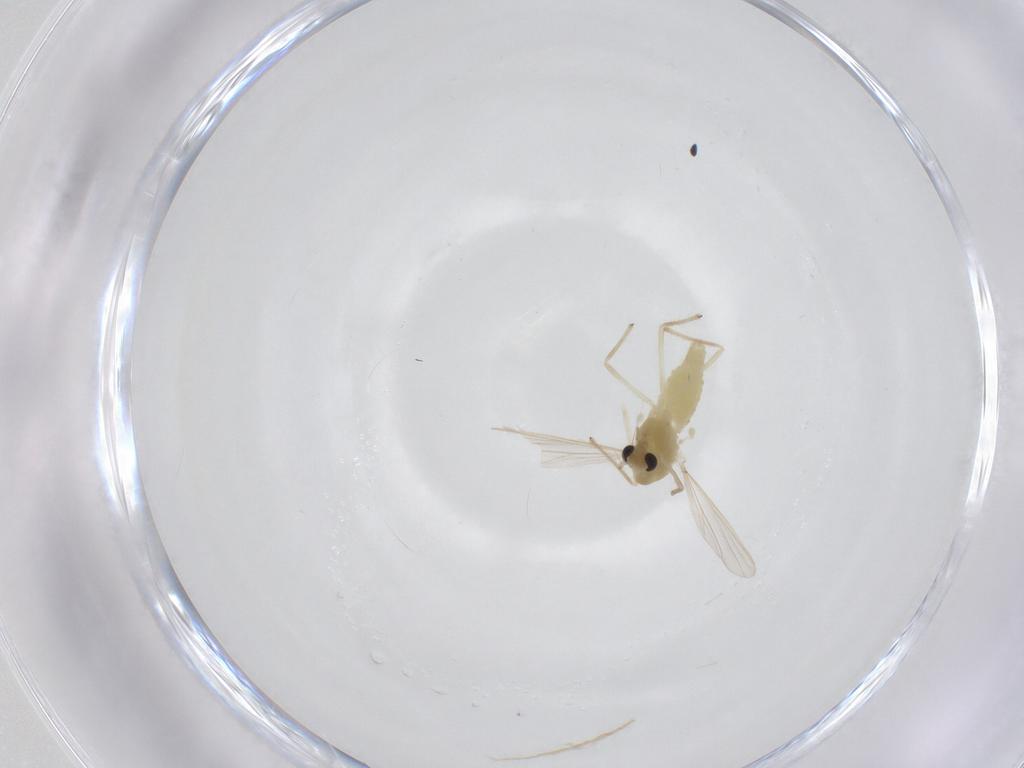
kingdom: Animalia
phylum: Arthropoda
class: Insecta
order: Diptera
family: Chironomidae
